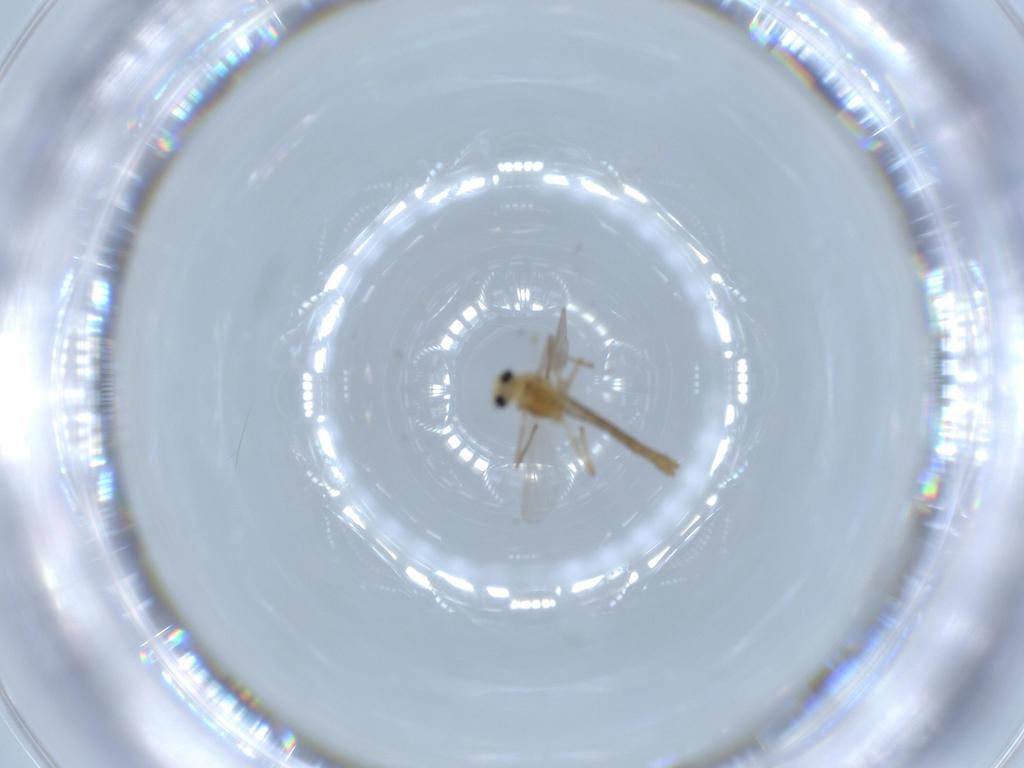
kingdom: Animalia
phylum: Arthropoda
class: Insecta
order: Diptera
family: Chironomidae
